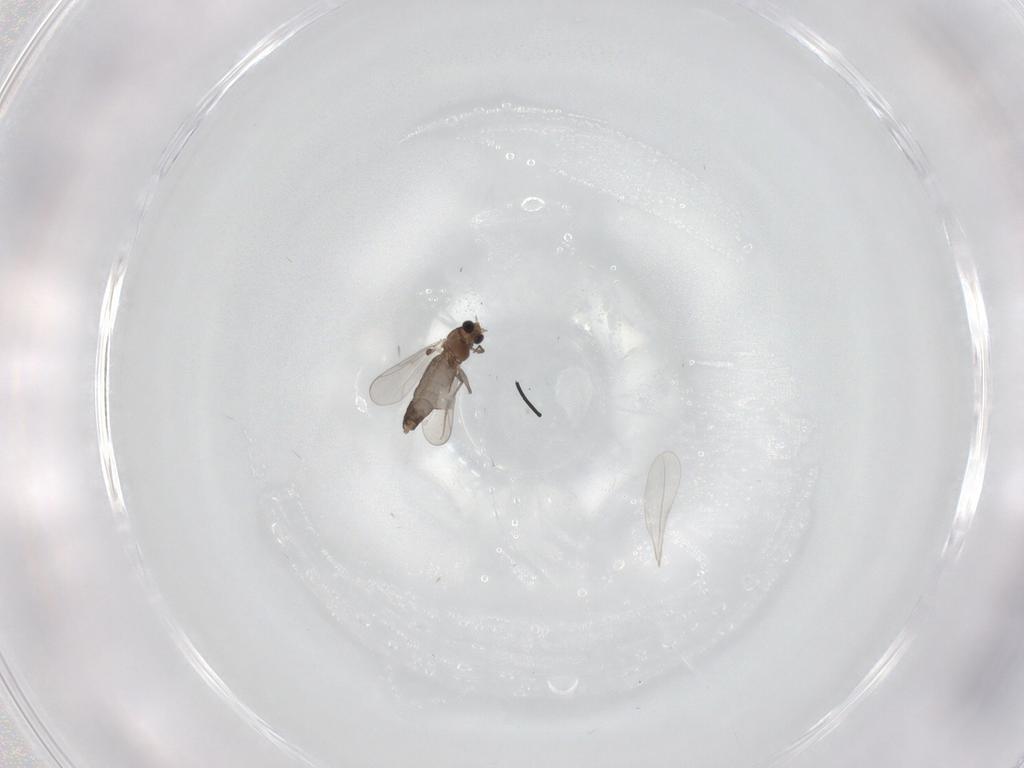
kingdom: Animalia
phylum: Arthropoda
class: Insecta
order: Diptera
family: Chironomidae
